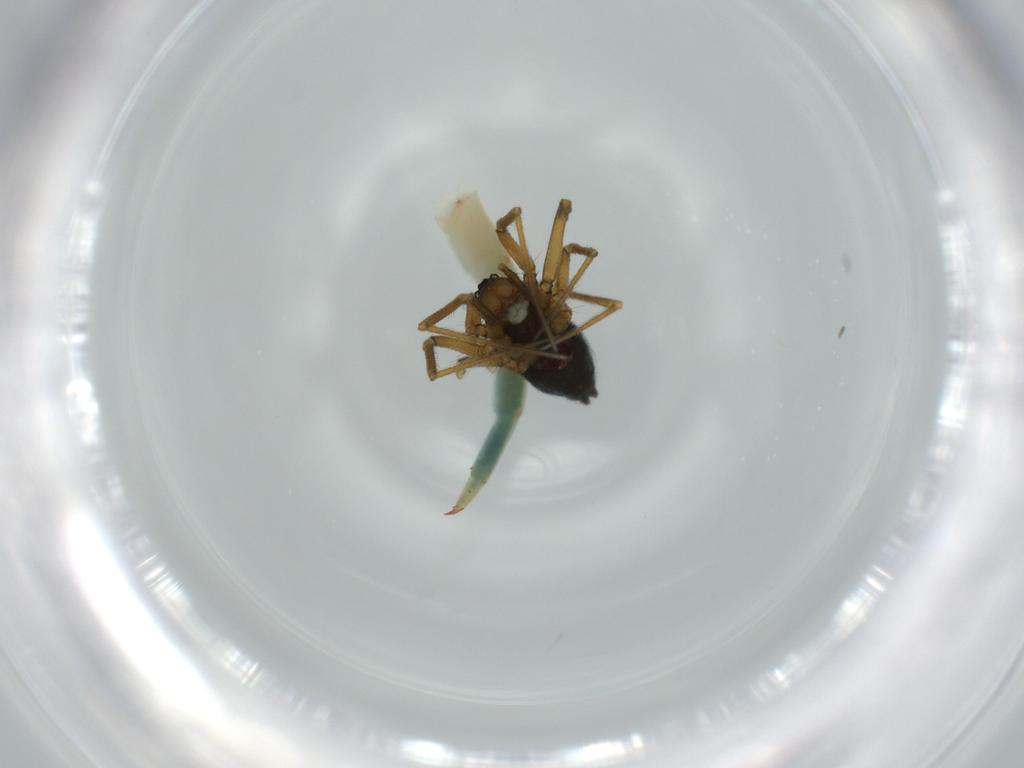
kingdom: Animalia
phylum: Arthropoda
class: Arachnida
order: Araneae
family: Linyphiidae
